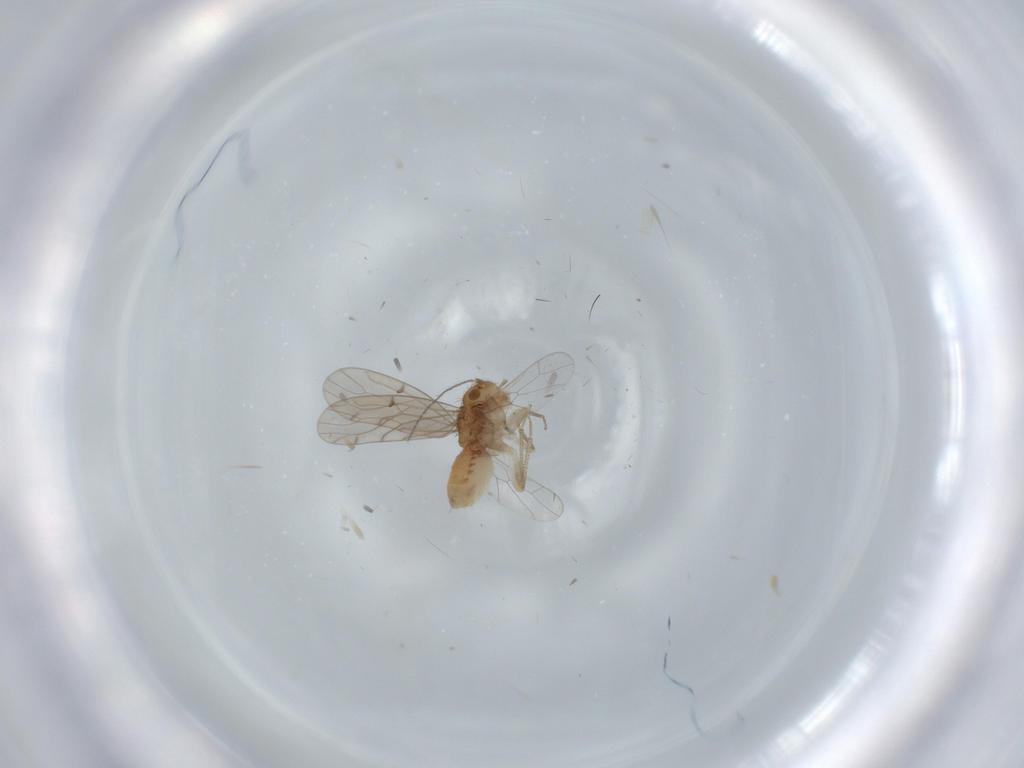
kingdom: Animalia
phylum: Arthropoda
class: Insecta
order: Psocodea
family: Ectopsocidae
